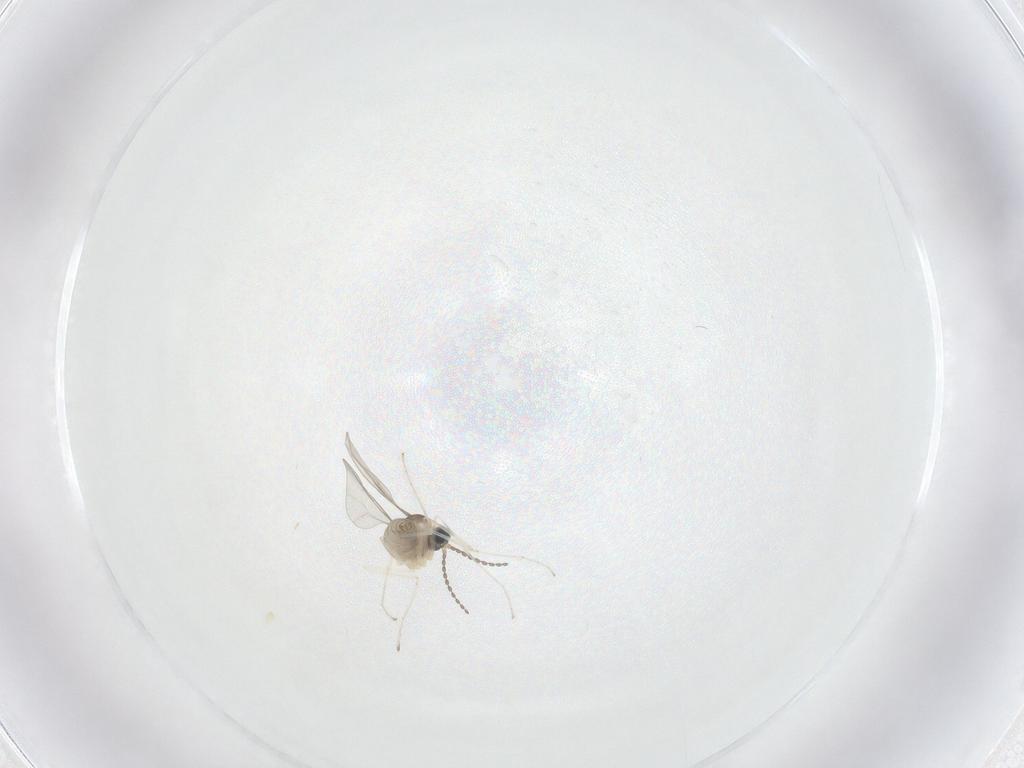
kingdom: Animalia
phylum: Arthropoda
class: Insecta
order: Diptera
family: Cecidomyiidae
